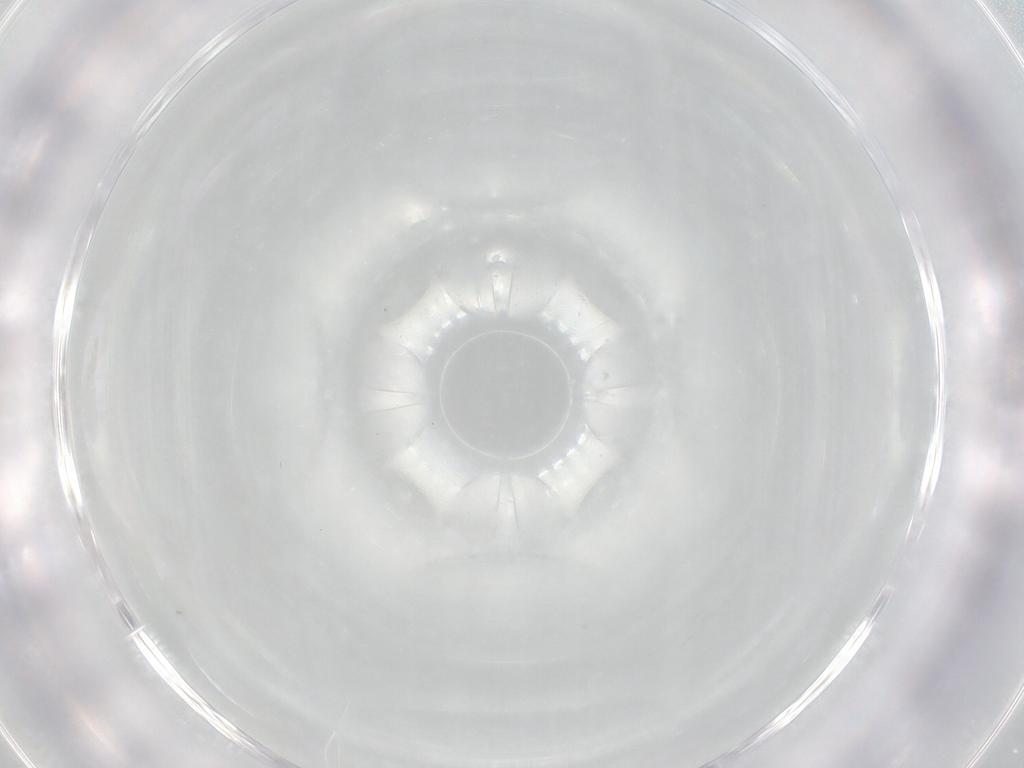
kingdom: Animalia
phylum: Arthropoda
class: Insecta
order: Lepidoptera
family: Geometridae
